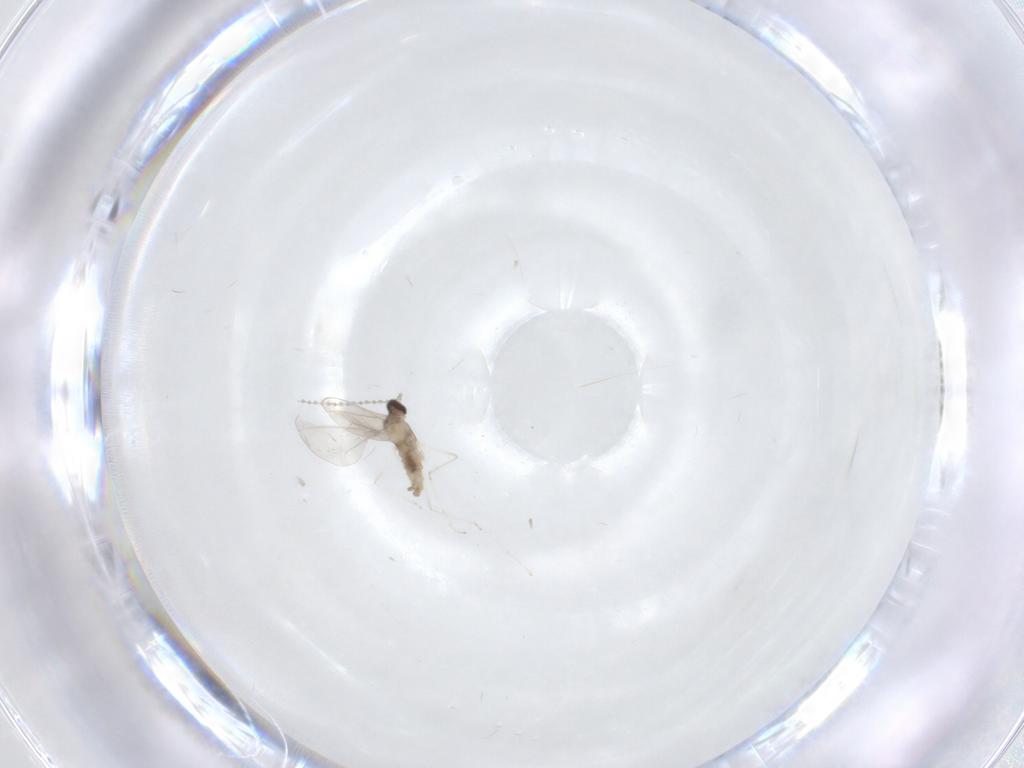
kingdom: Animalia
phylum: Arthropoda
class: Insecta
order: Diptera
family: Cecidomyiidae
